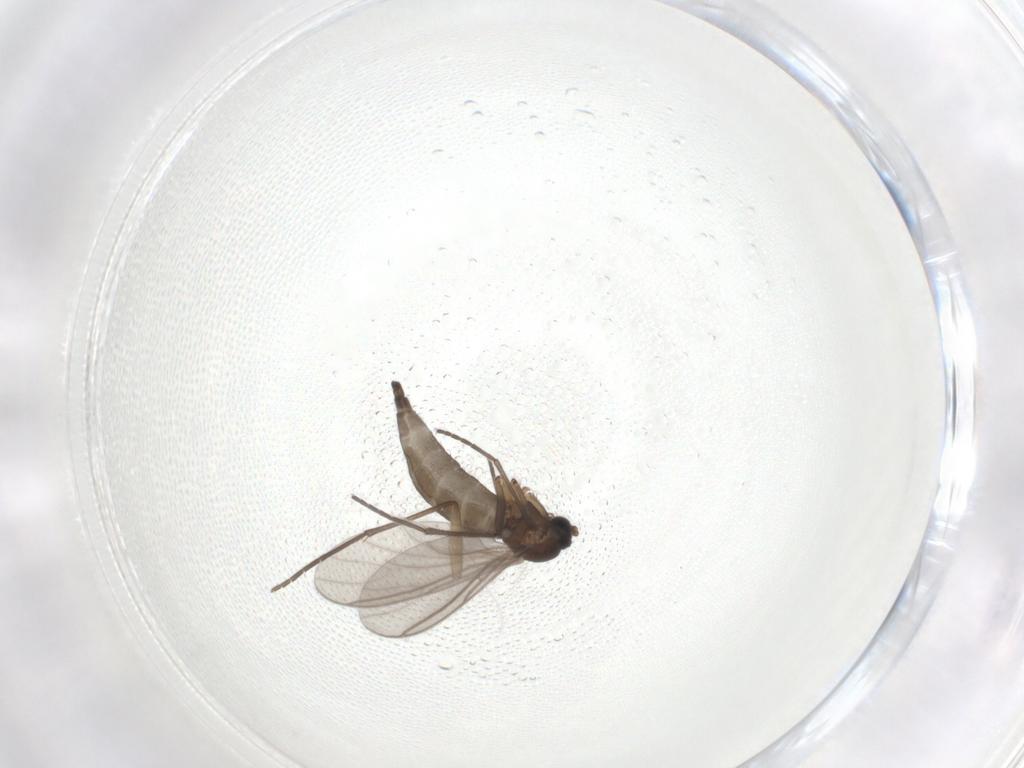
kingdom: Animalia
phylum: Arthropoda
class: Insecta
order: Diptera
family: Sciaridae
